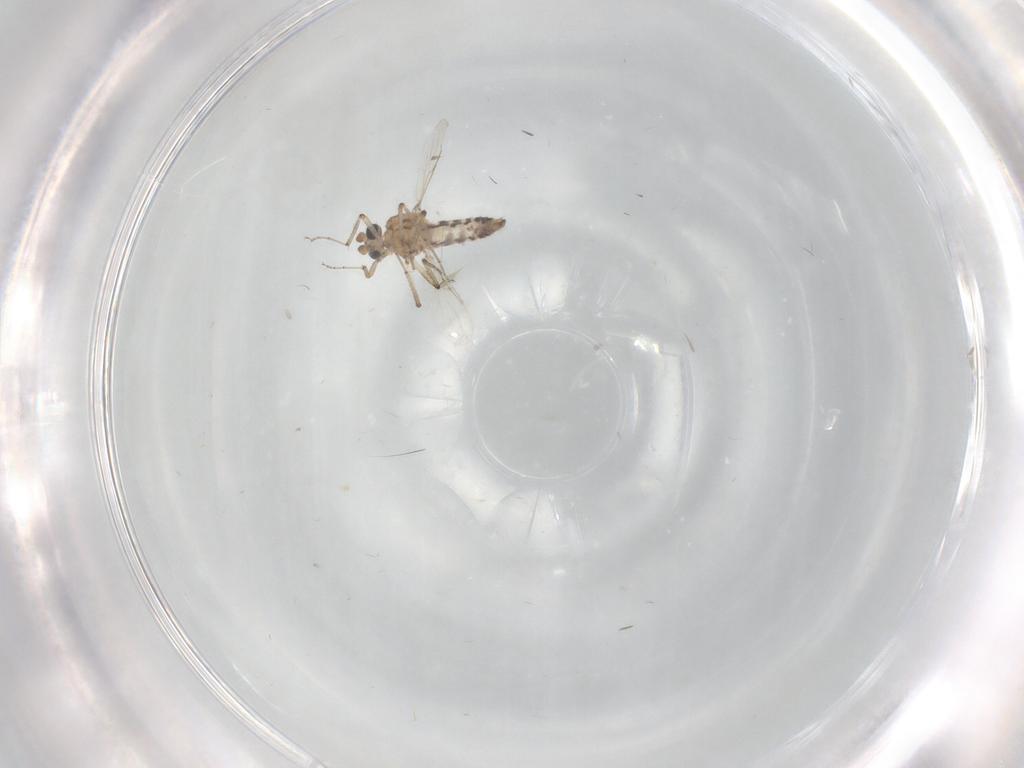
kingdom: Animalia
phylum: Arthropoda
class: Insecta
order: Diptera
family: Ceratopogonidae
